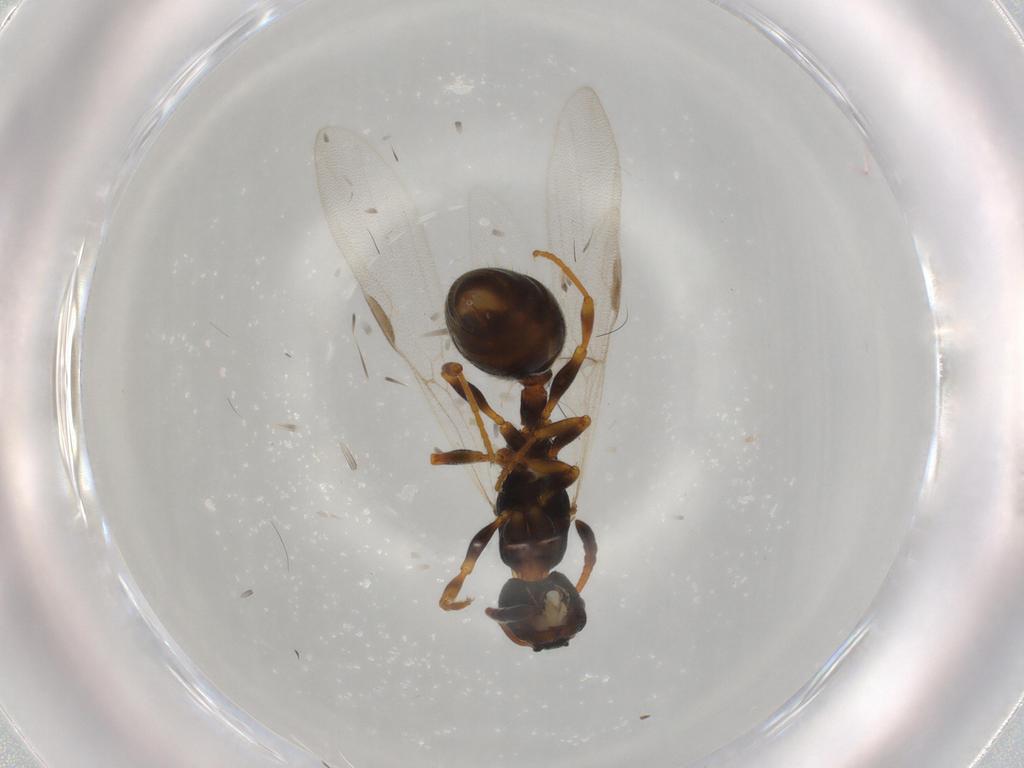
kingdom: Animalia
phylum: Arthropoda
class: Insecta
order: Hymenoptera
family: Formicidae
